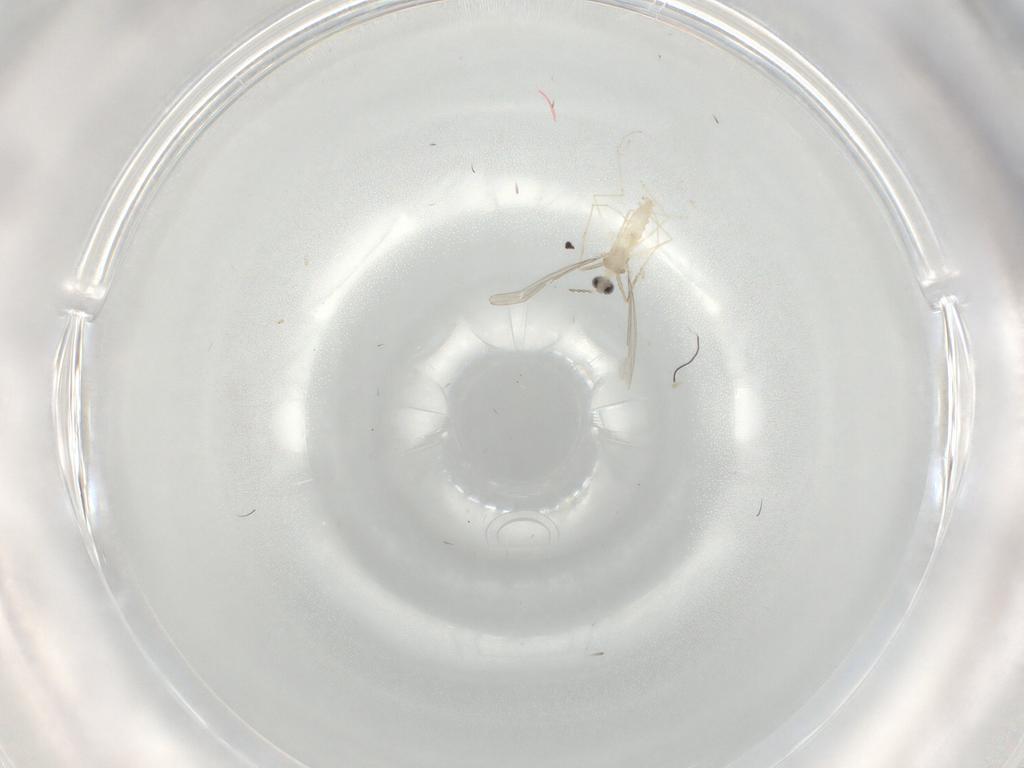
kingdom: Animalia
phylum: Arthropoda
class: Insecta
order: Diptera
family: Cecidomyiidae
